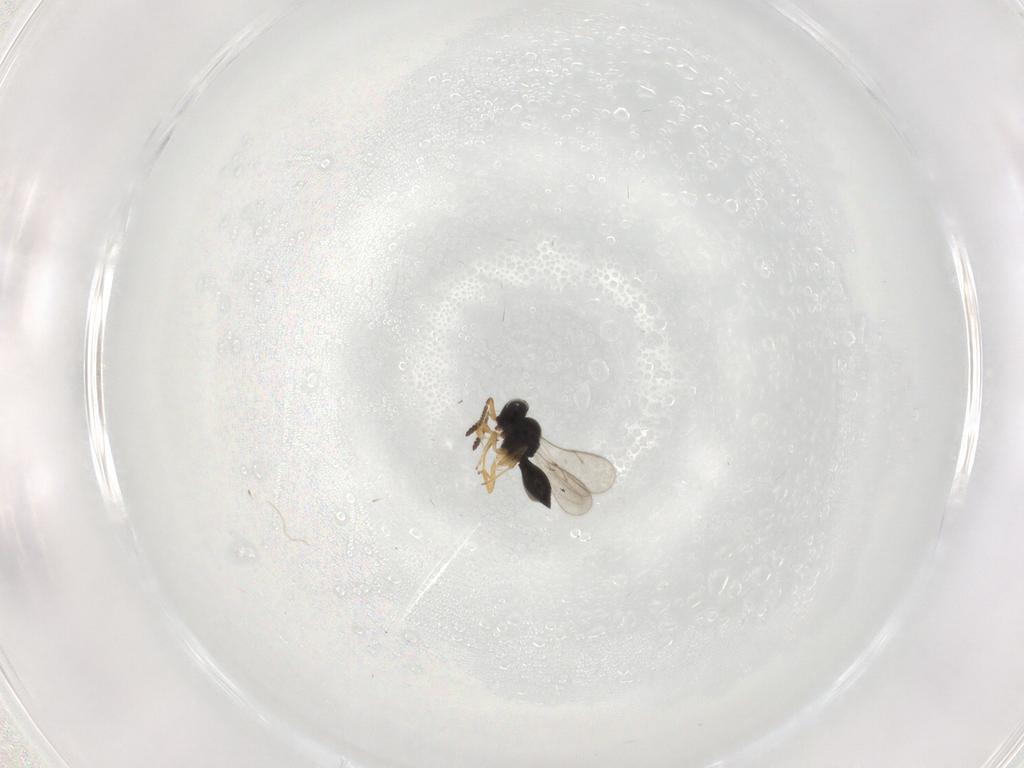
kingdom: Animalia
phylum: Arthropoda
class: Insecta
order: Hymenoptera
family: Scelionidae
